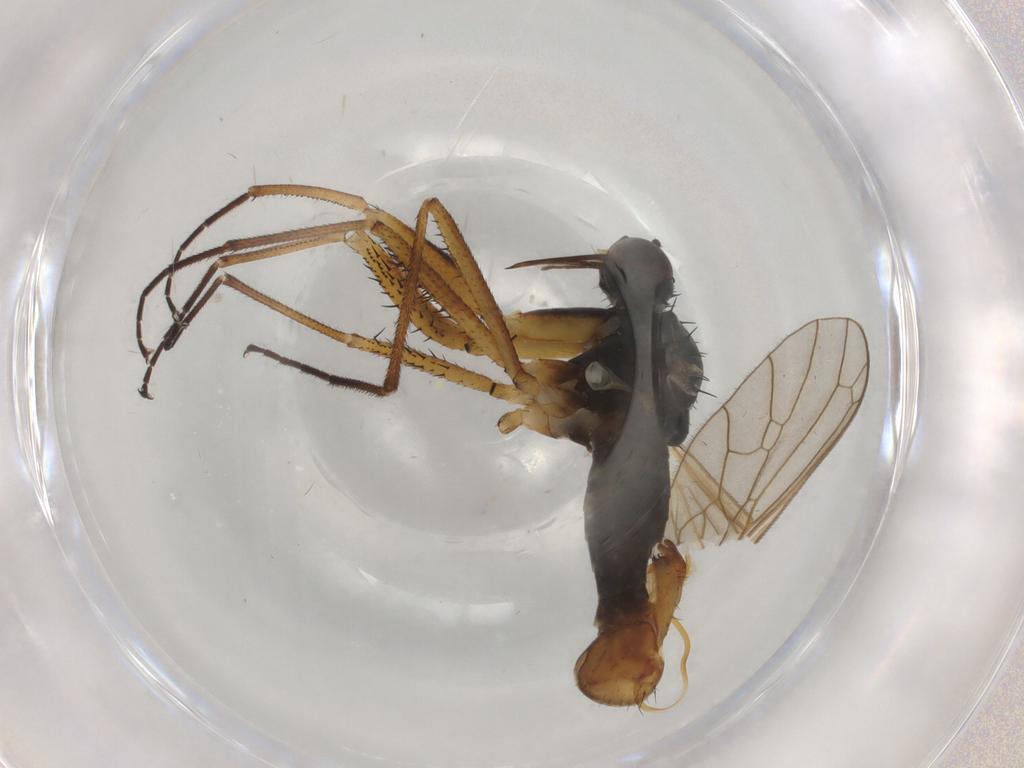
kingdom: Animalia
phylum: Arthropoda
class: Insecta
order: Diptera
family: Empididae
